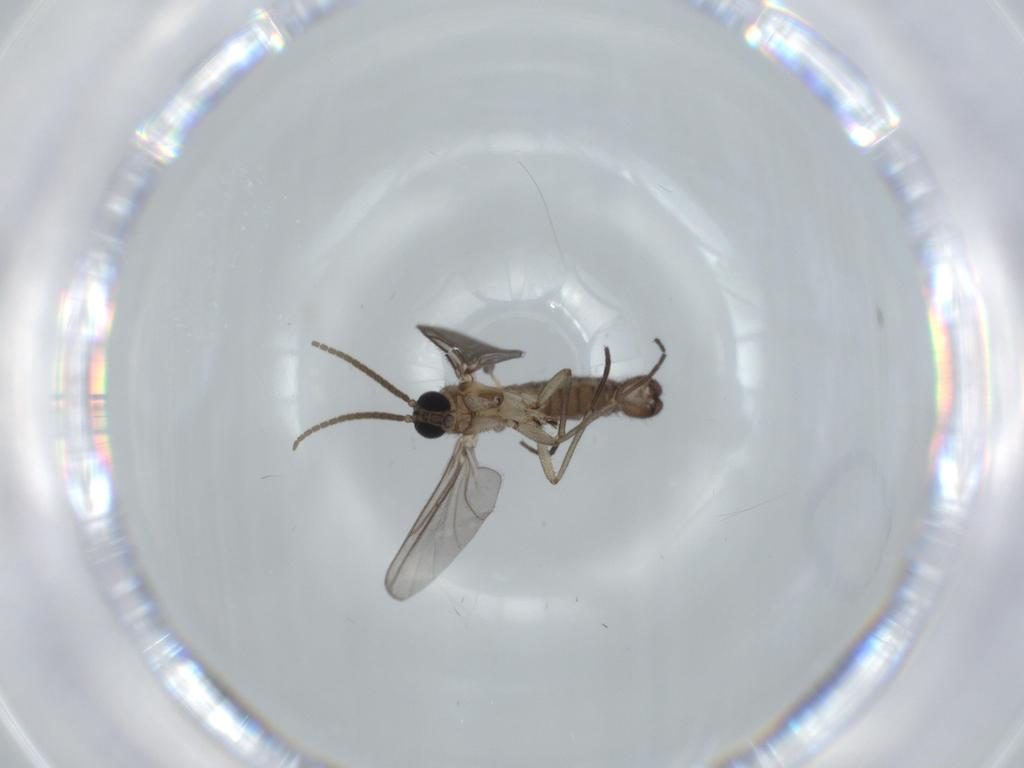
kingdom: Animalia
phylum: Arthropoda
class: Insecta
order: Diptera
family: Sciaridae
